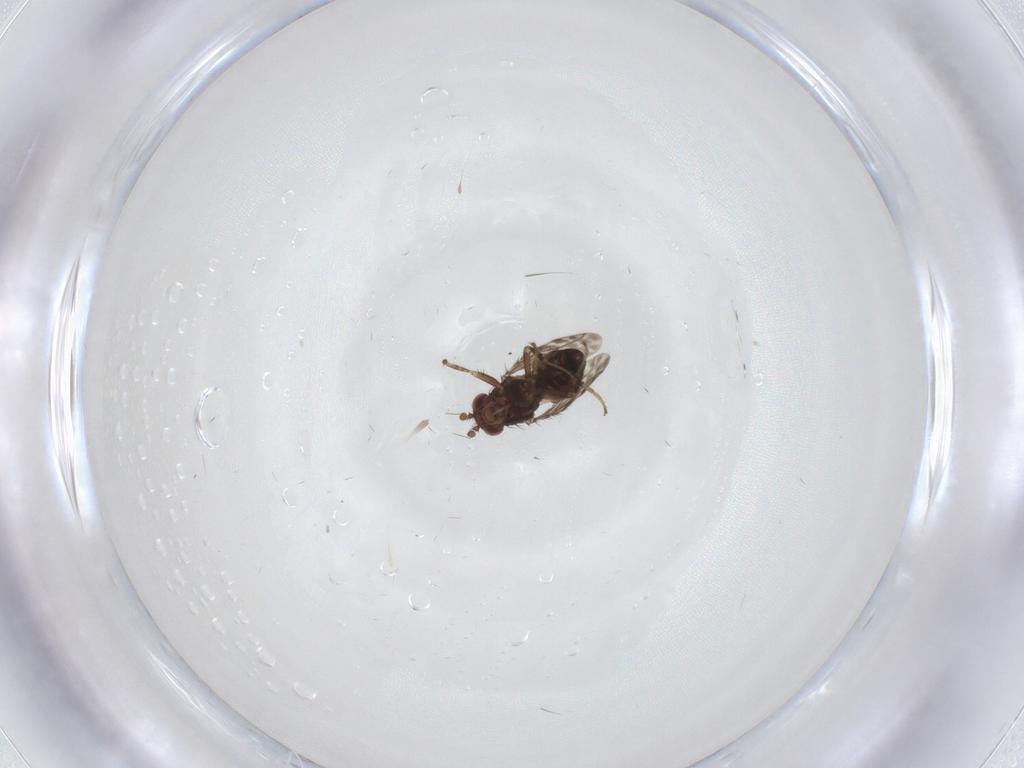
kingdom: Animalia
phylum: Arthropoda
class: Insecta
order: Diptera
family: Sphaeroceridae
